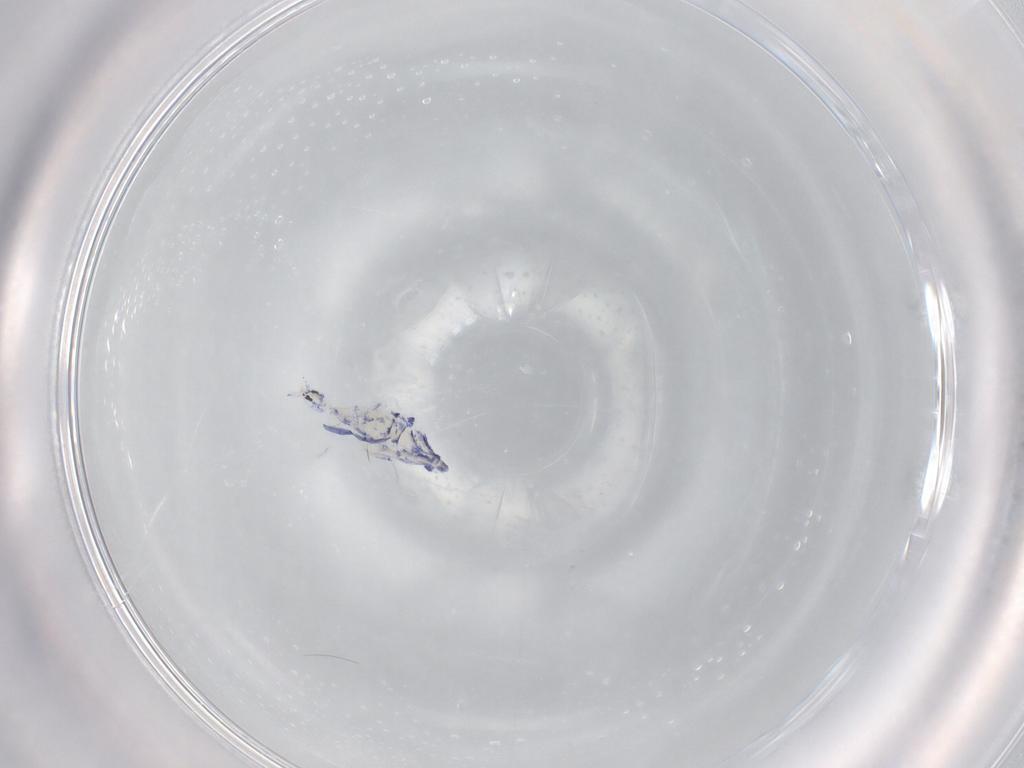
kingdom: Animalia
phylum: Arthropoda
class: Collembola
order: Entomobryomorpha
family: Entomobryidae
